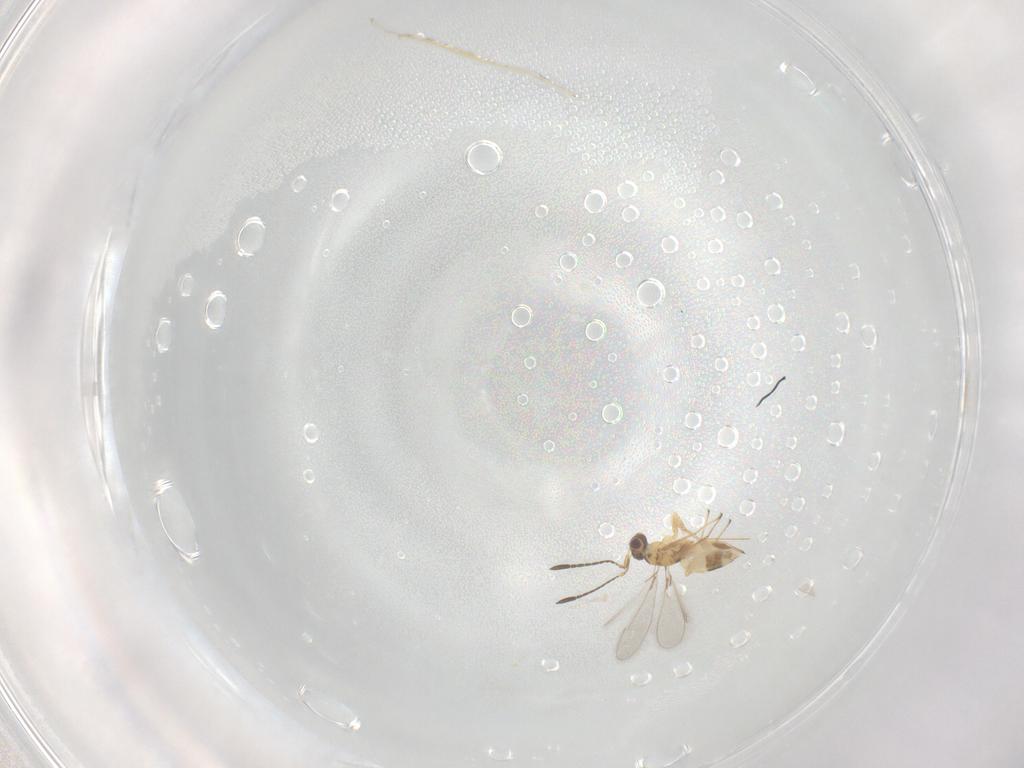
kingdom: Animalia
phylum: Arthropoda
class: Insecta
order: Hymenoptera
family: Mymaridae
